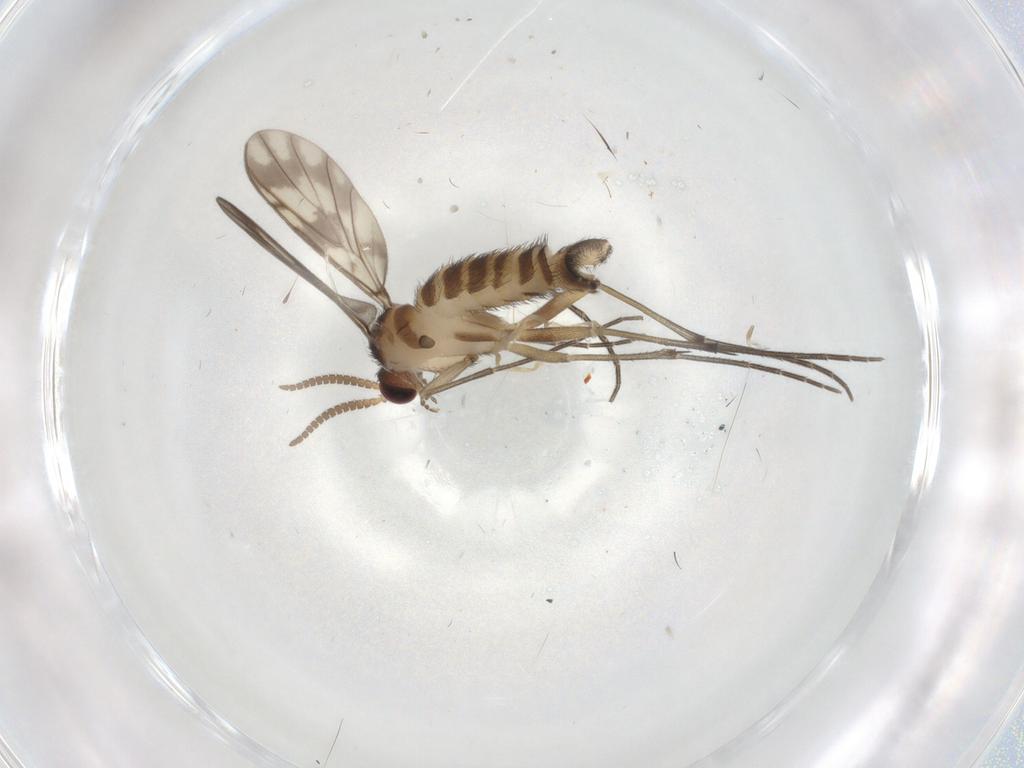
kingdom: Animalia
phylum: Arthropoda
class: Insecta
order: Diptera
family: Keroplatidae
